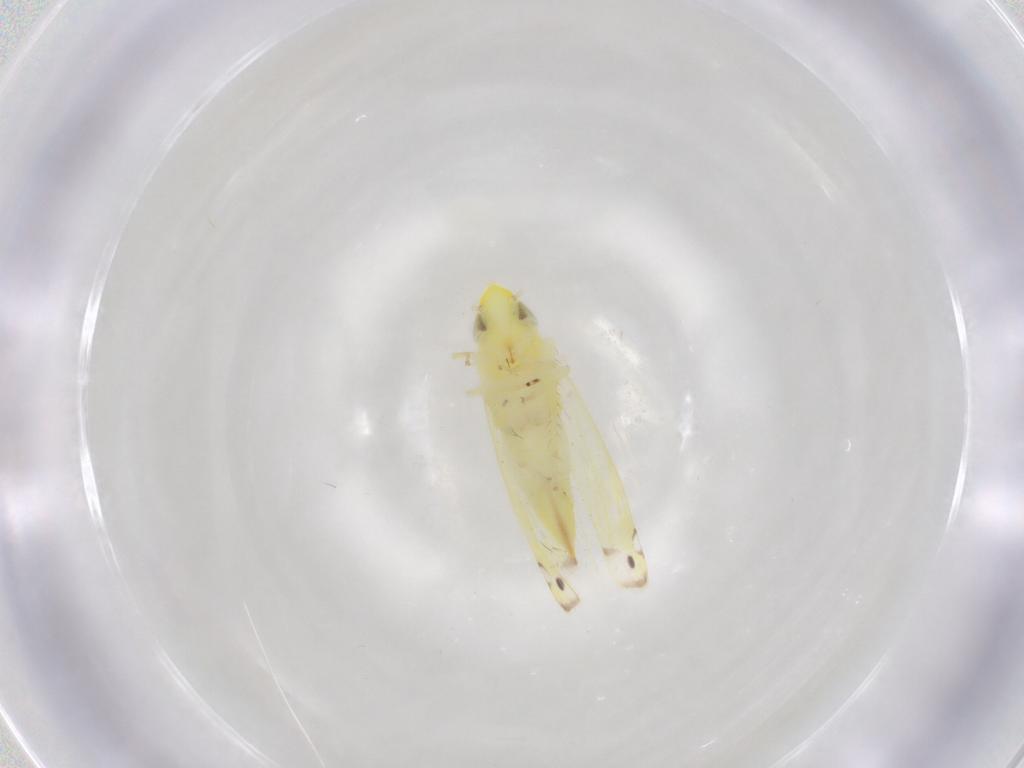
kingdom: Animalia
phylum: Arthropoda
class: Insecta
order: Hemiptera
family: Cicadellidae
